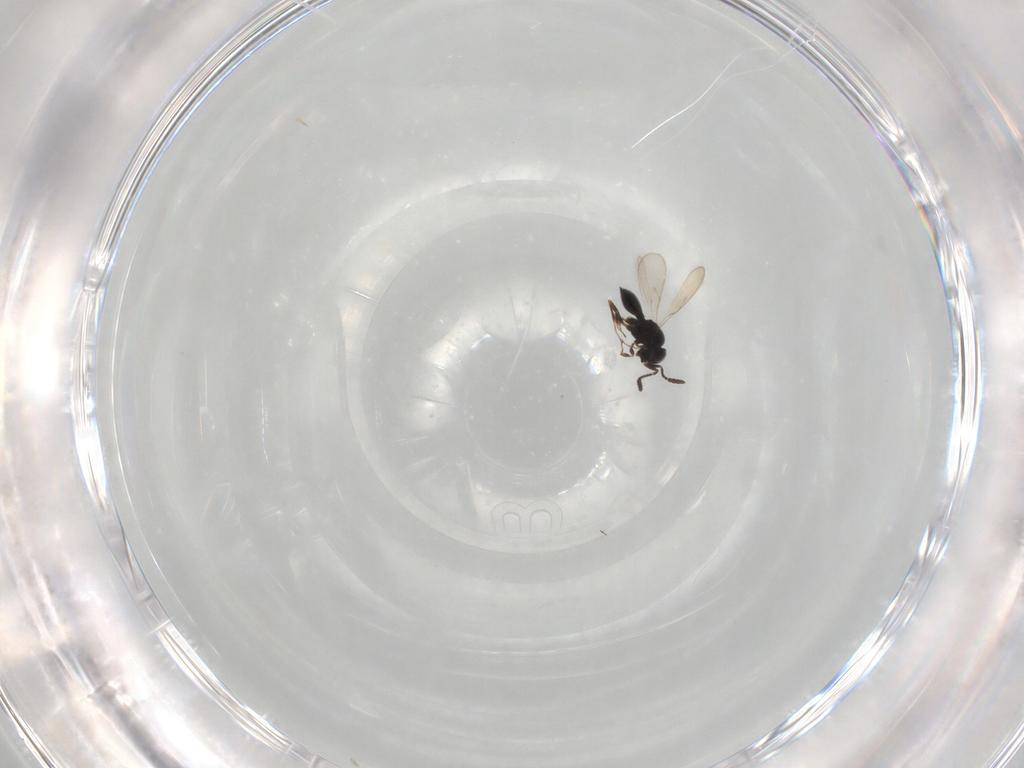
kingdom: Animalia
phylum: Arthropoda
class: Insecta
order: Hymenoptera
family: Scelionidae
